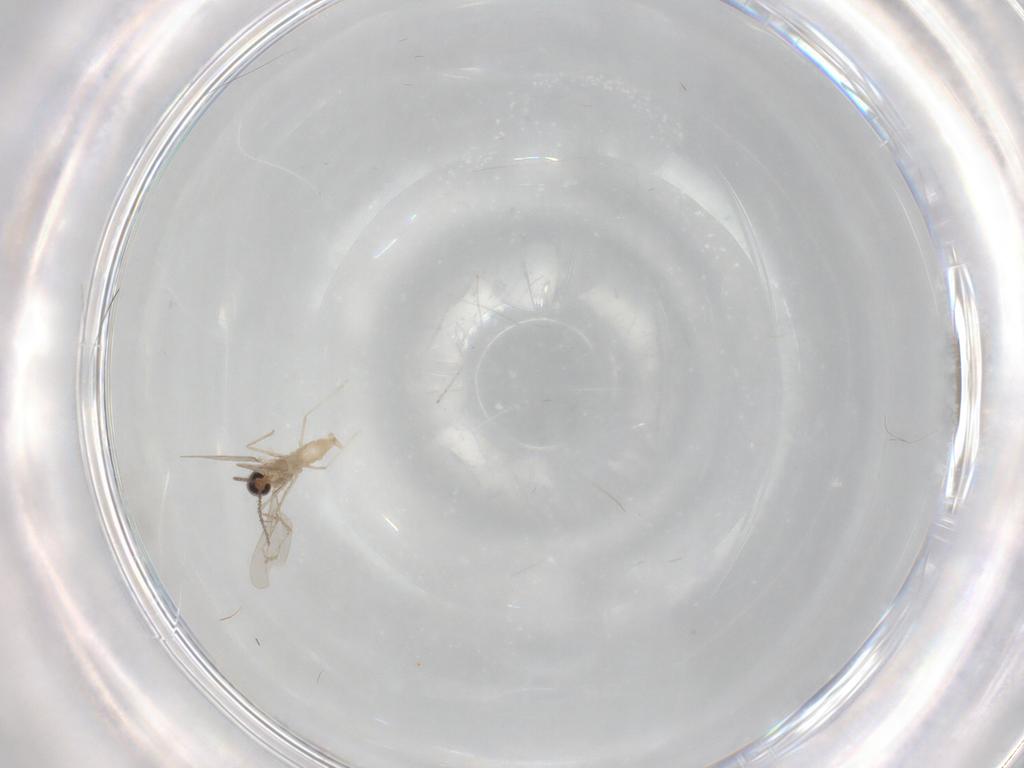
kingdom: Animalia
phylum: Arthropoda
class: Insecta
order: Diptera
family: Cecidomyiidae
